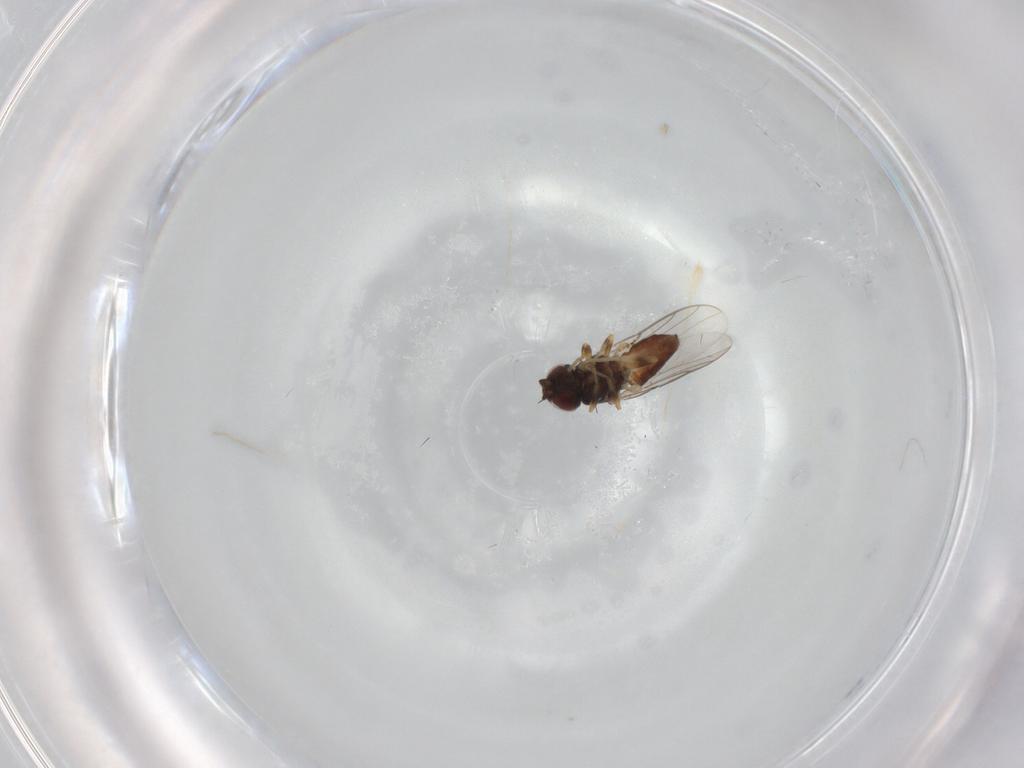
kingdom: Animalia
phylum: Arthropoda
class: Insecta
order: Diptera
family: Chloropidae
